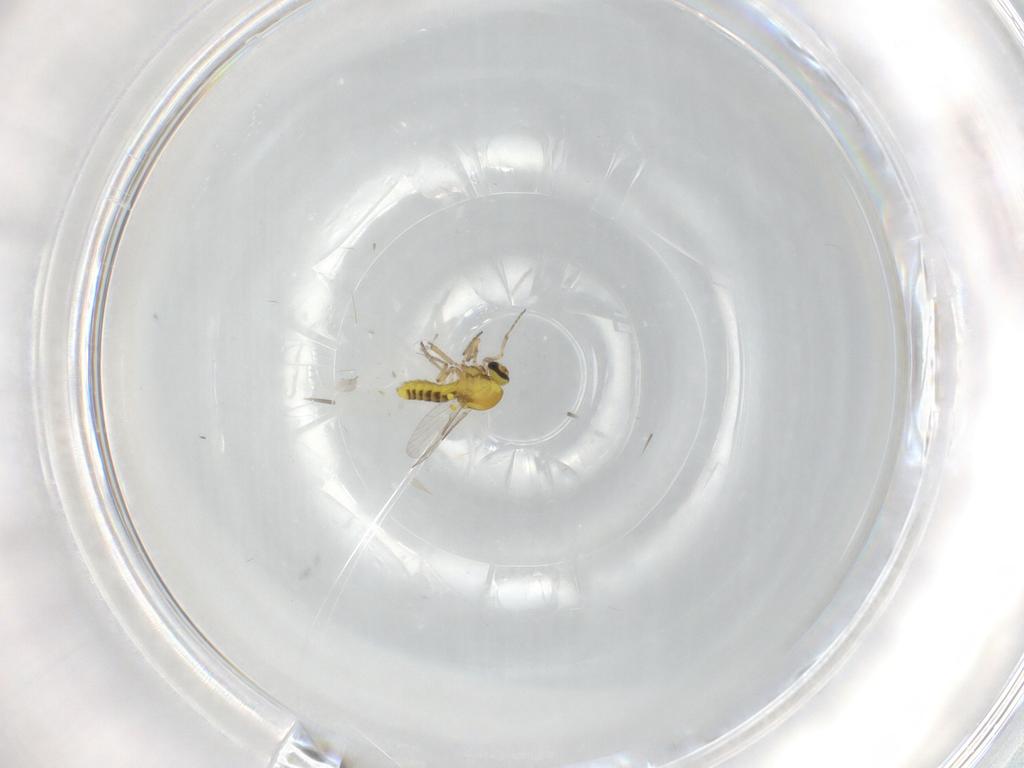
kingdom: Animalia
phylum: Arthropoda
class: Insecta
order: Diptera
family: Ceratopogonidae
